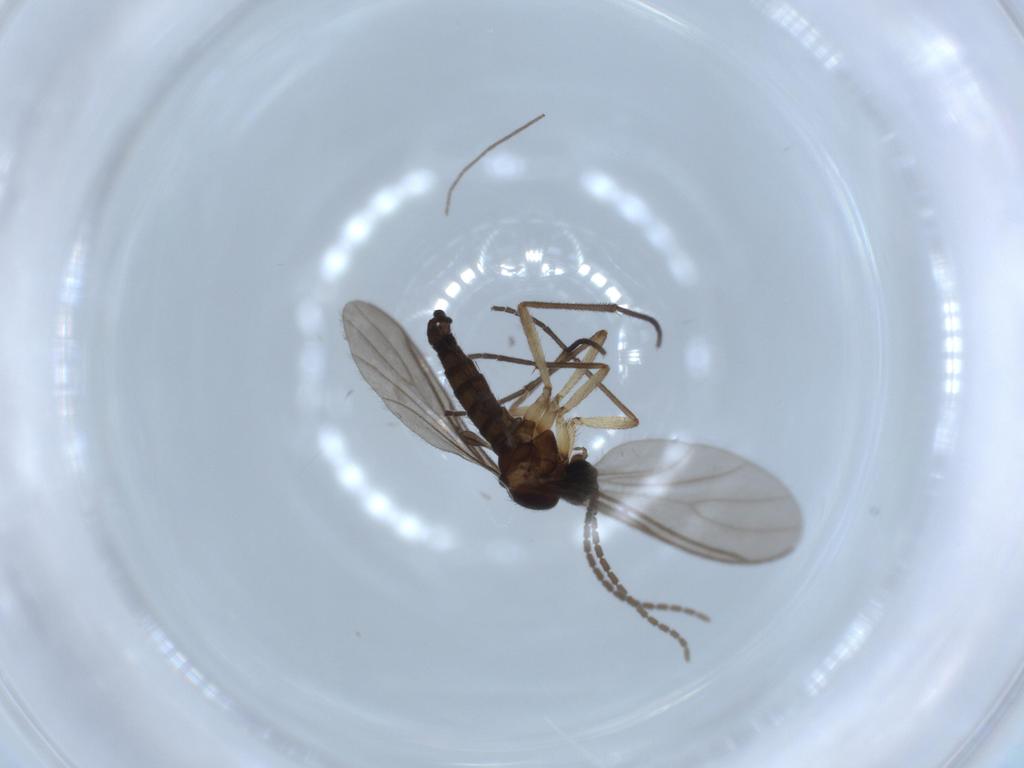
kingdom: Animalia
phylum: Arthropoda
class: Insecta
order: Diptera
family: Sciaridae
